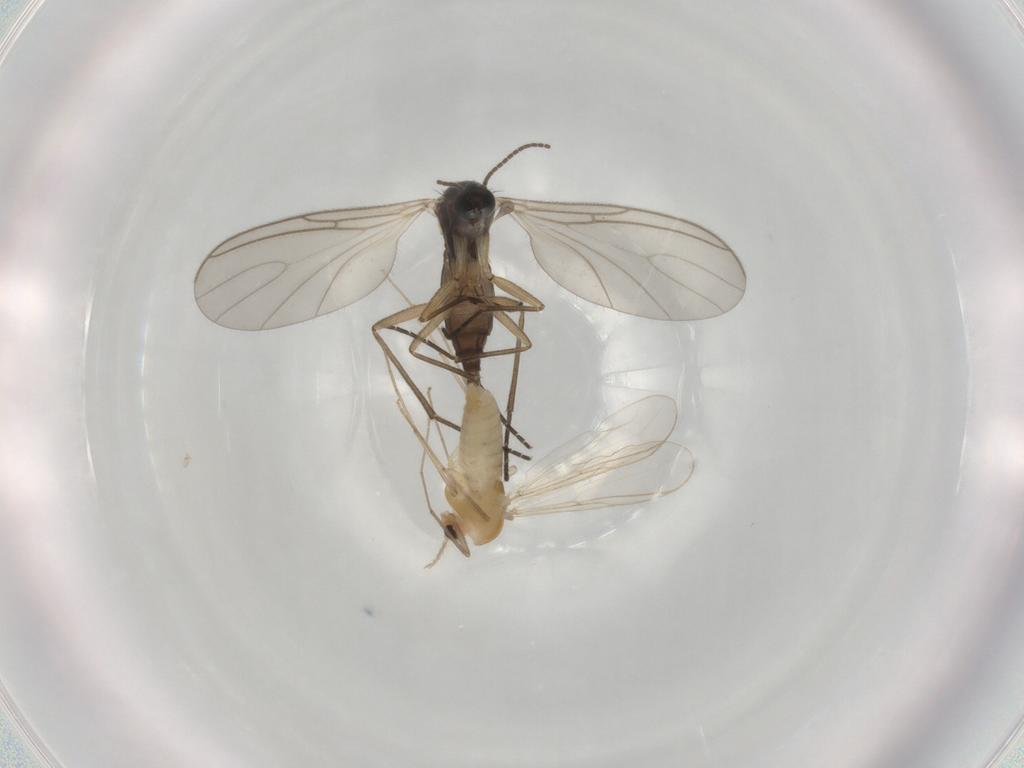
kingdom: Animalia
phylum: Arthropoda
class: Insecta
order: Diptera
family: Sciaridae
